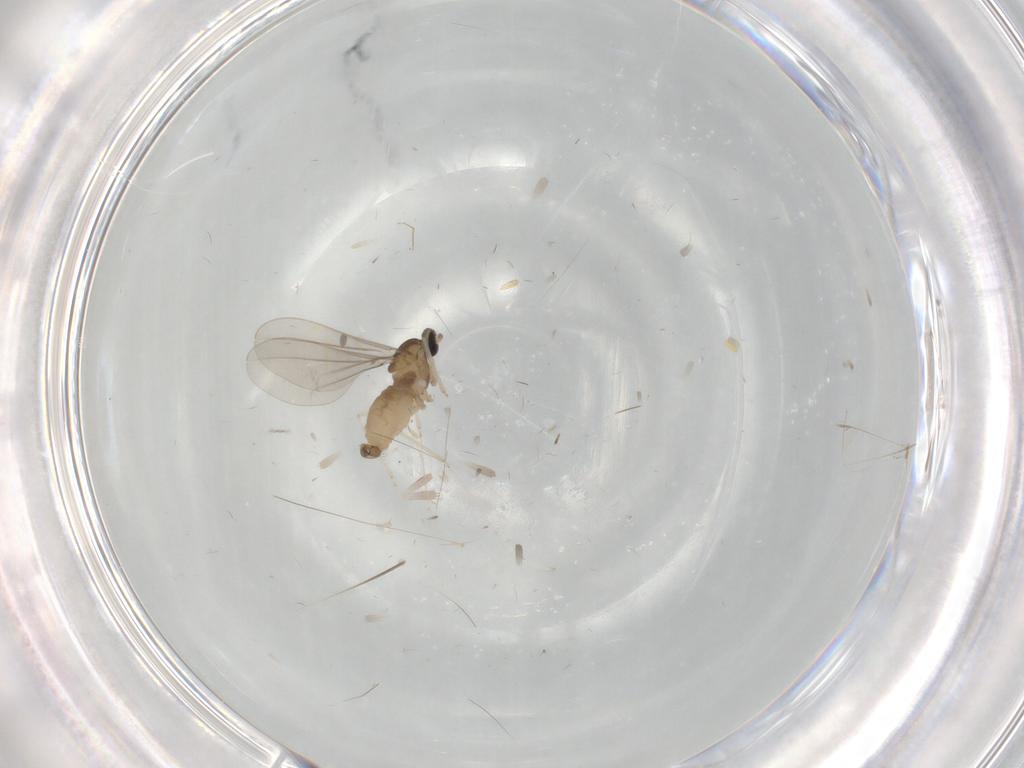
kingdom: Animalia
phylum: Arthropoda
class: Insecta
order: Diptera
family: Cecidomyiidae
